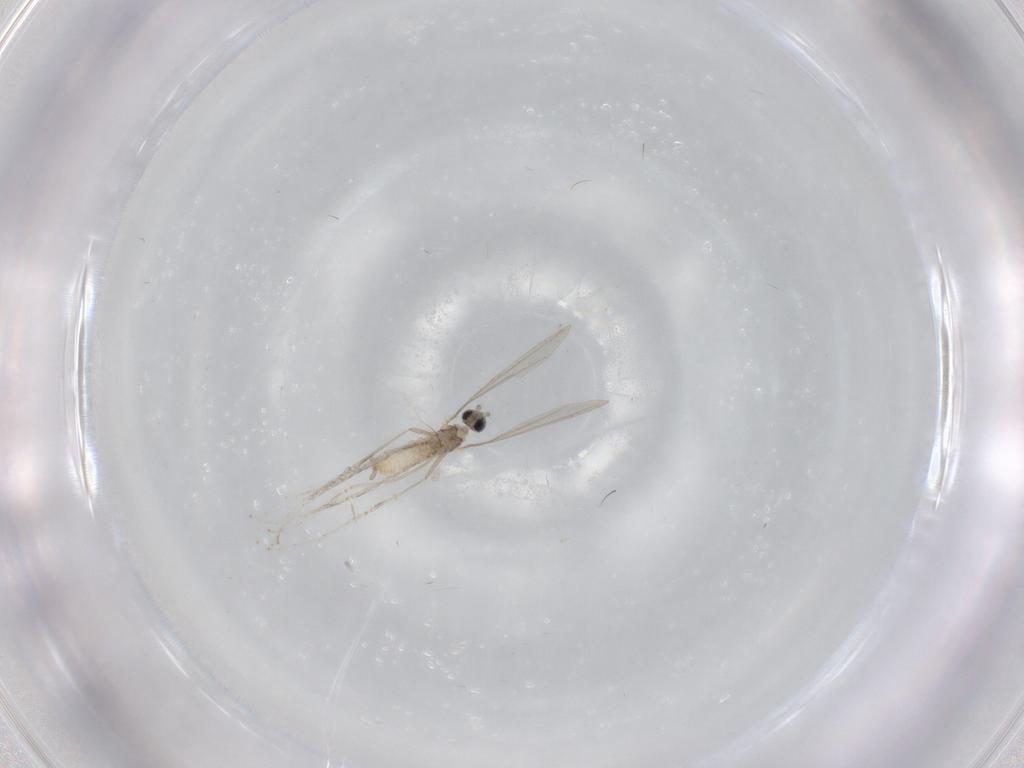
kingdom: Animalia
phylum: Arthropoda
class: Insecta
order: Diptera
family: Cecidomyiidae
